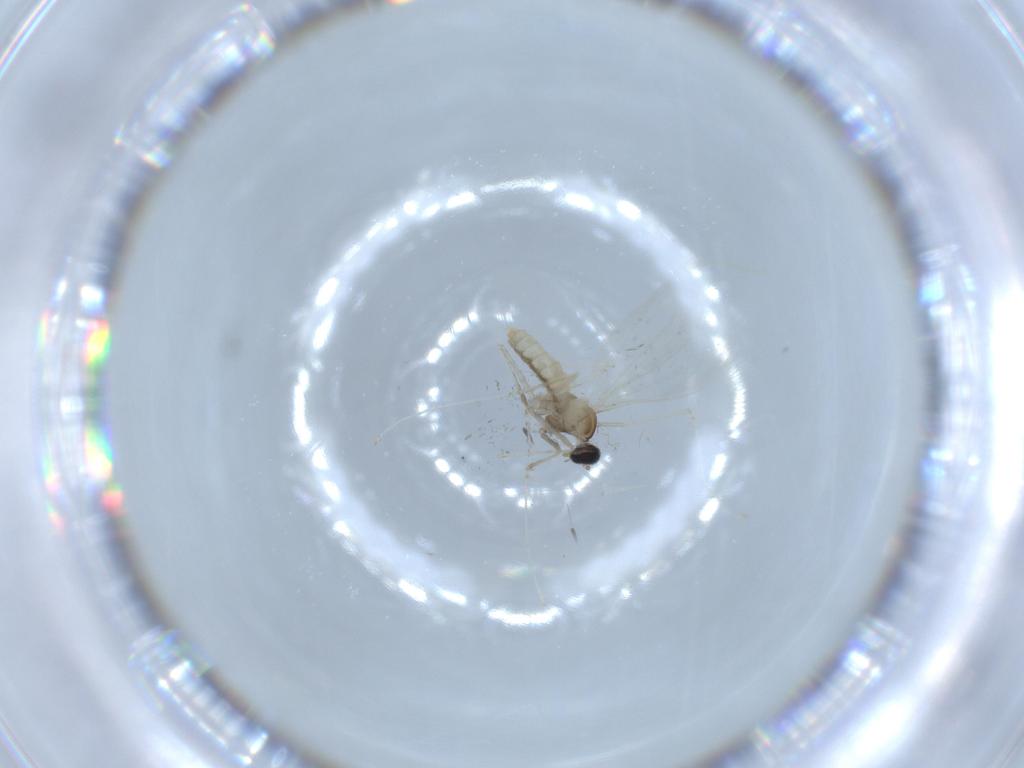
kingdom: Animalia
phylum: Arthropoda
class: Insecta
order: Diptera
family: Cecidomyiidae
